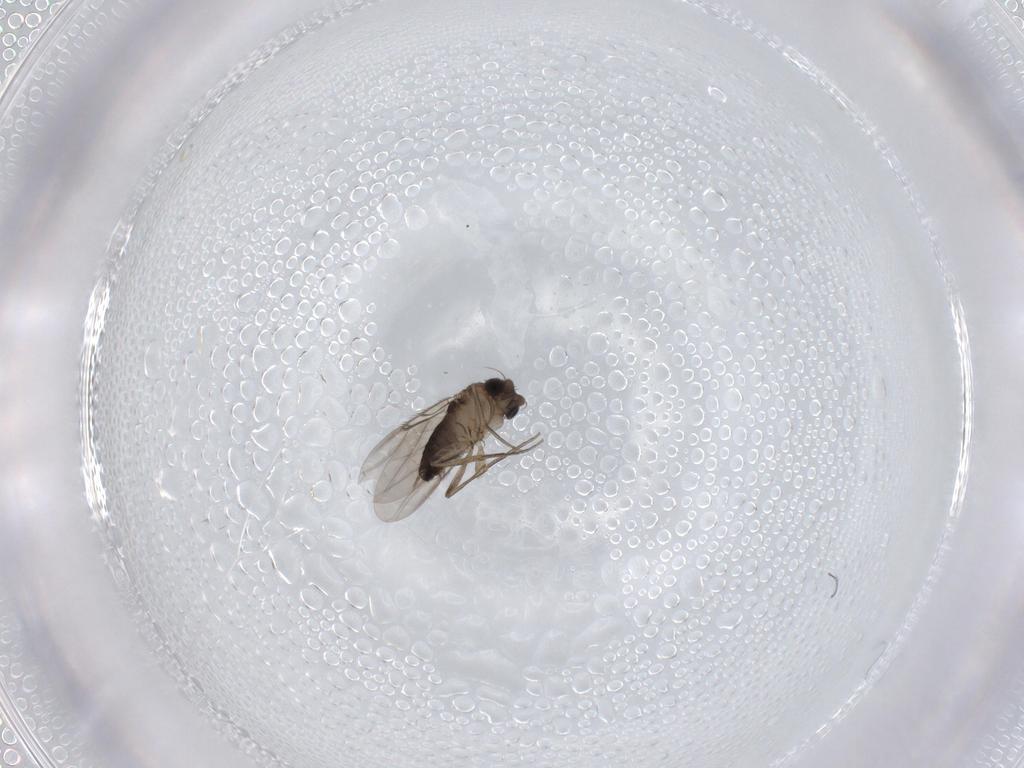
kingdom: Animalia
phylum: Arthropoda
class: Insecta
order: Diptera
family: Phoridae
